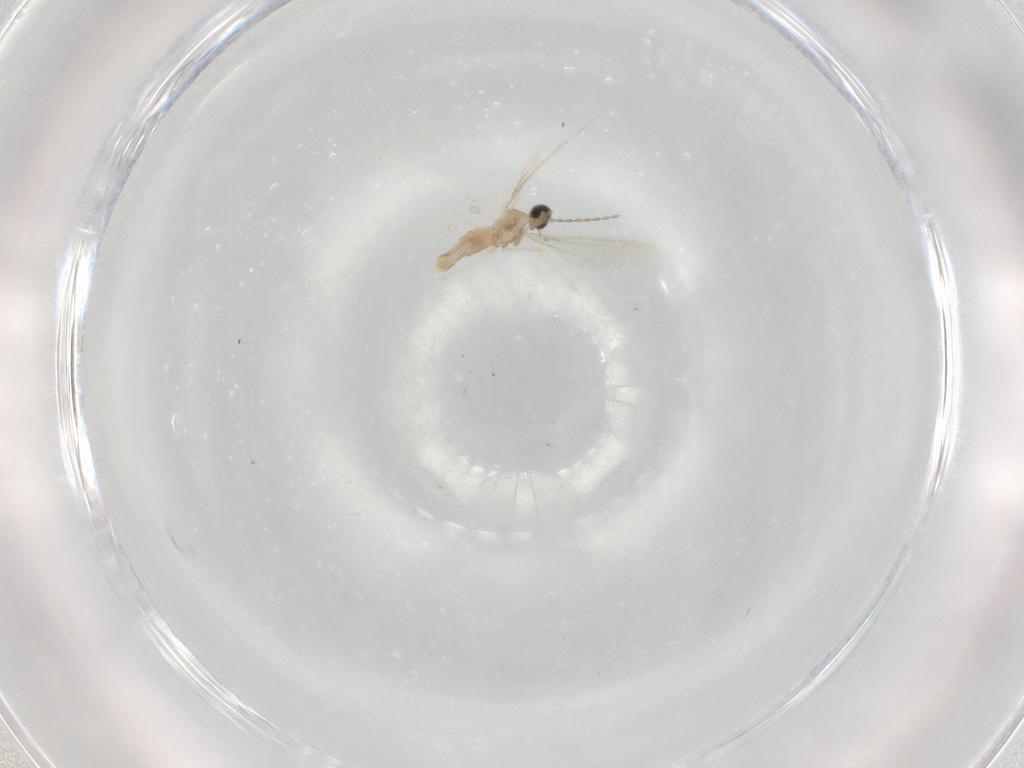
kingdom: Animalia
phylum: Arthropoda
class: Insecta
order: Diptera
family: Cecidomyiidae
